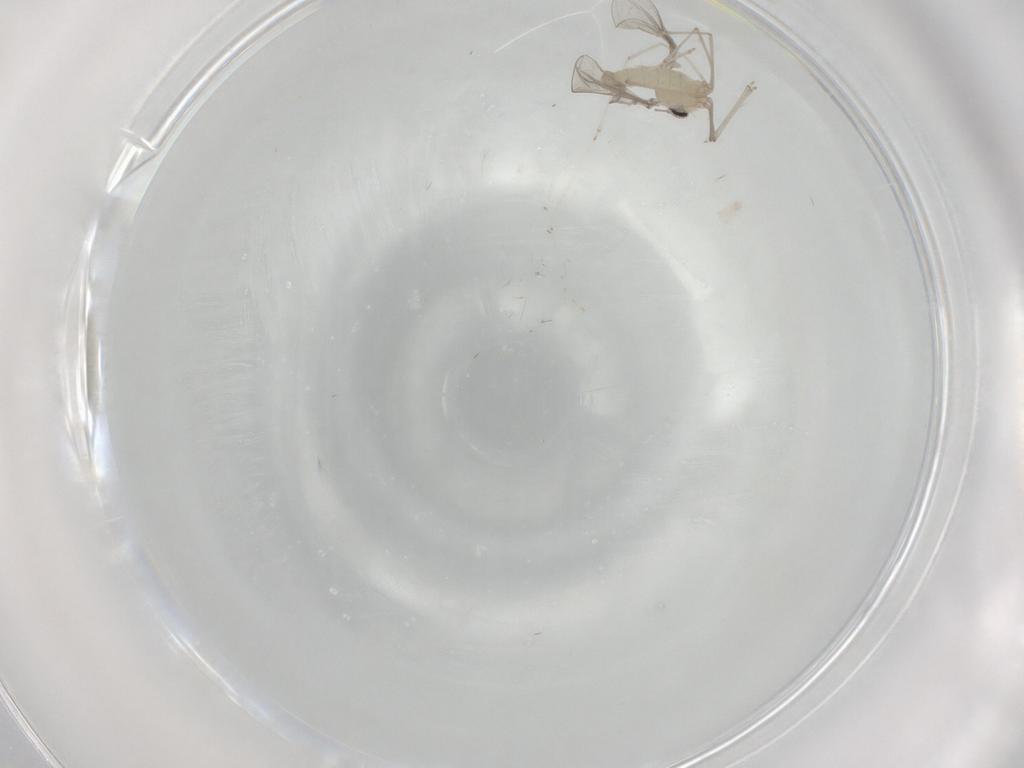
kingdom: Animalia
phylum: Arthropoda
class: Insecta
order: Diptera
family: Cecidomyiidae
